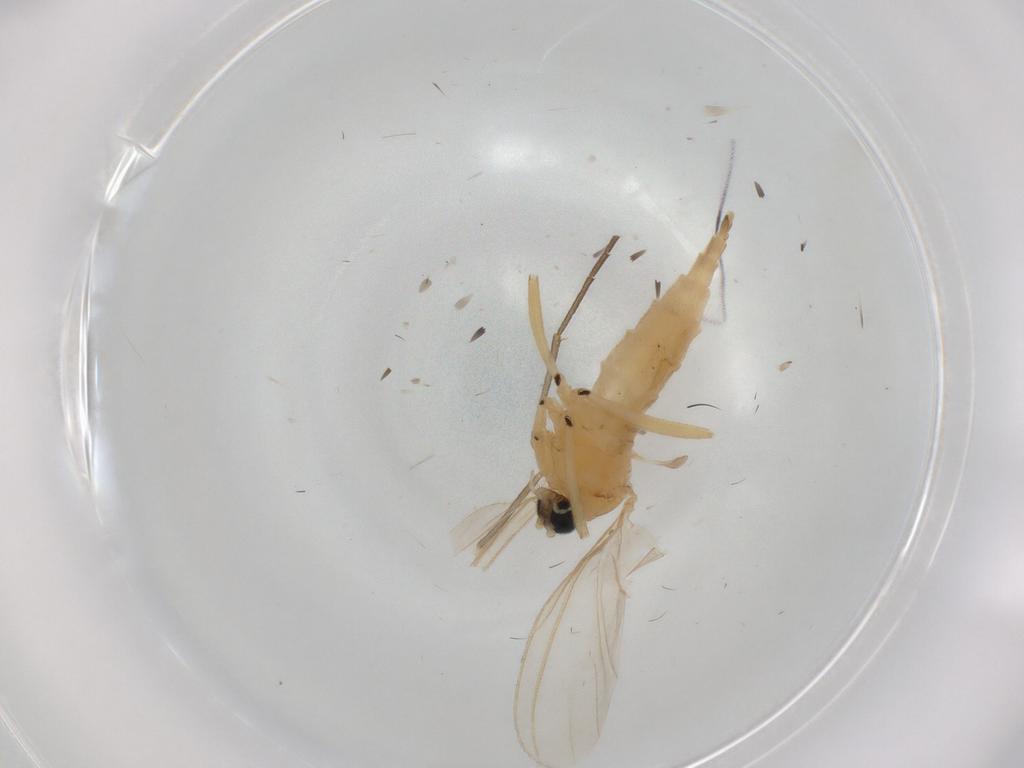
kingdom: Animalia
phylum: Arthropoda
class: Insecta
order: Diptera
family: Sciaridae
